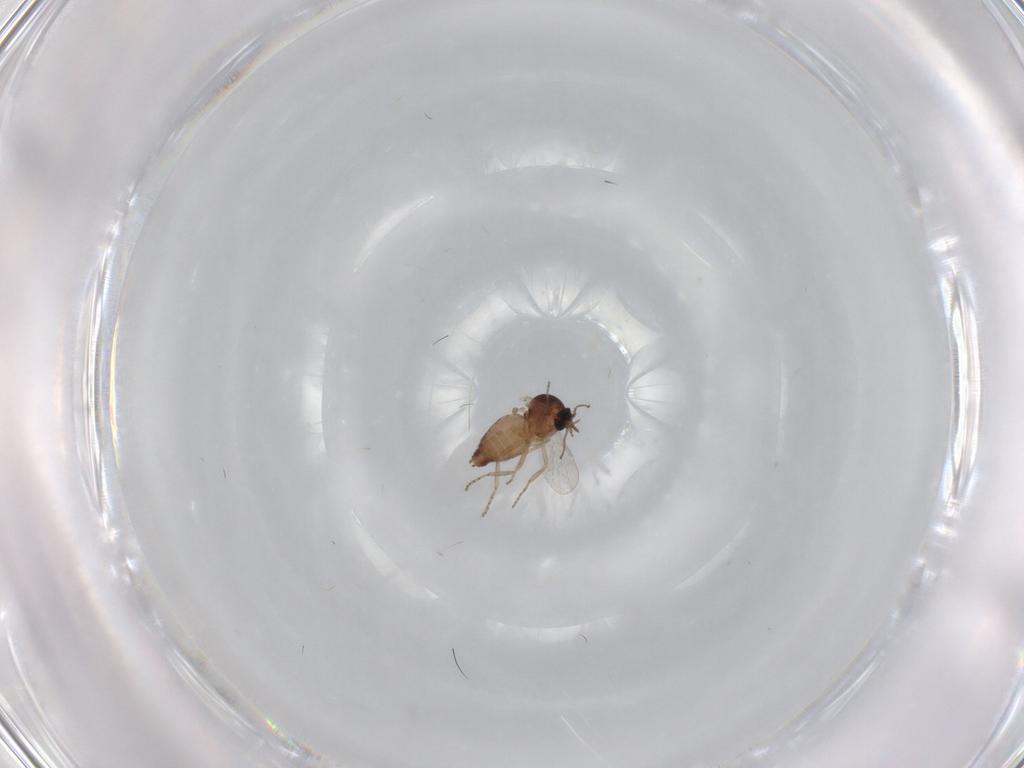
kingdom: Animalia
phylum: Arthropoda
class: Insecta
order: Diptera
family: Ceratopogonidae
